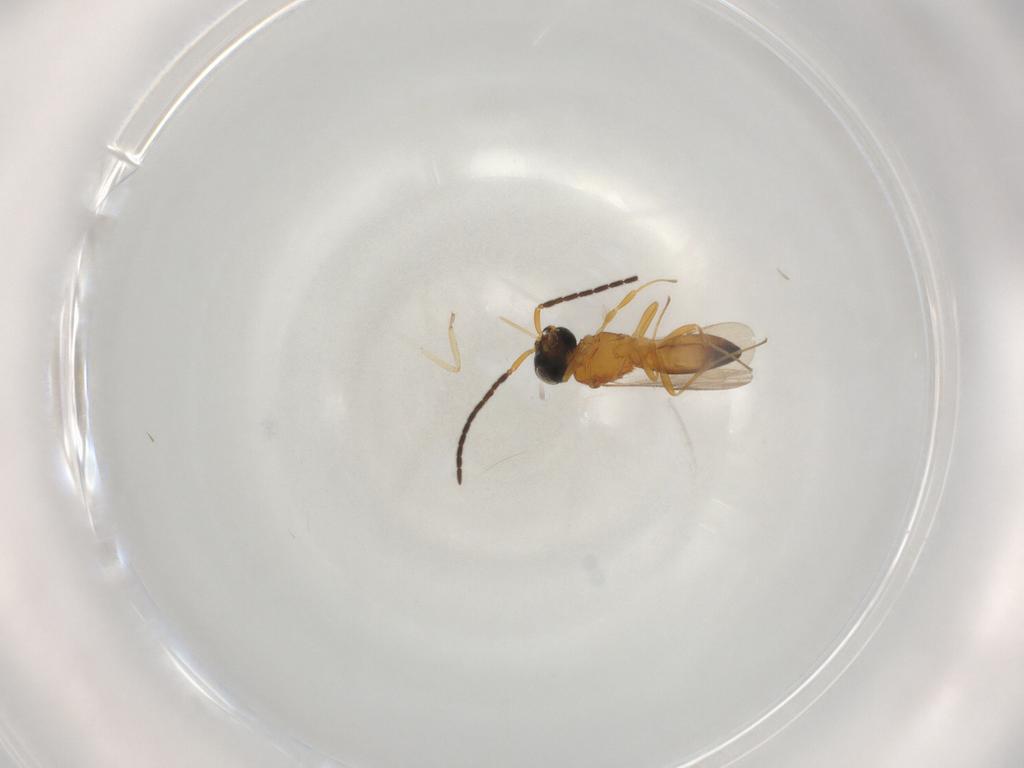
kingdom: Animalia
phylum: Arthropoda
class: Insecta
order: Hymenoptera
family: Scelionidae
